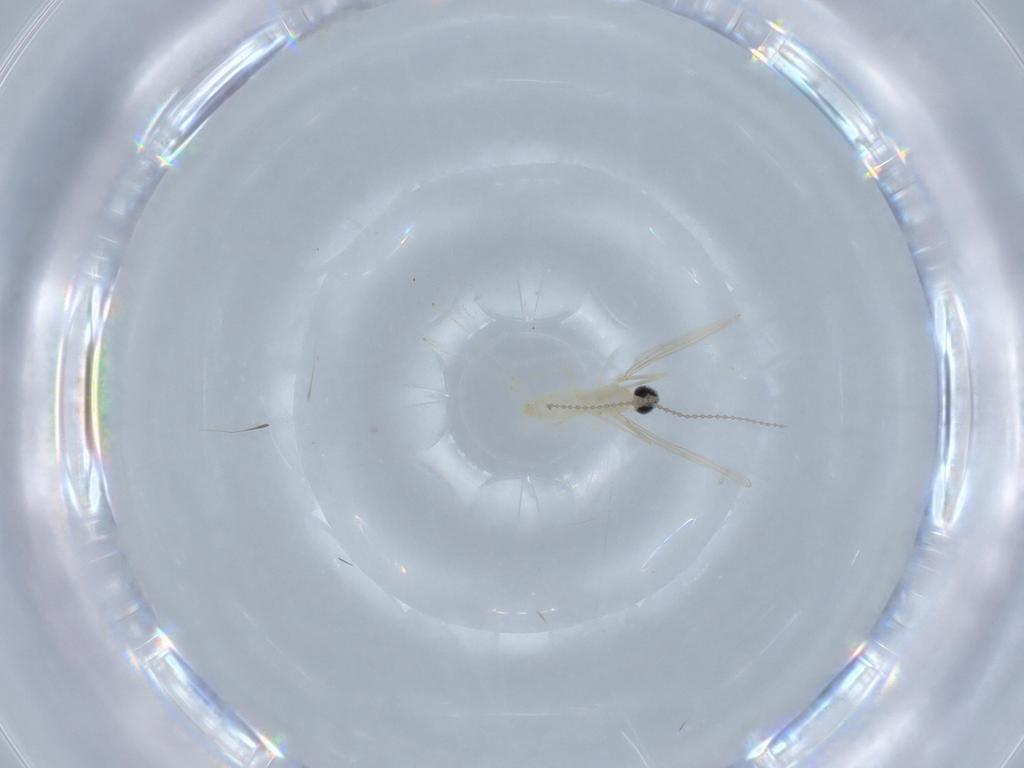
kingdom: Animalia
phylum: Arthropoda
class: Insecta
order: Diptera
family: Cecidomyiidae
